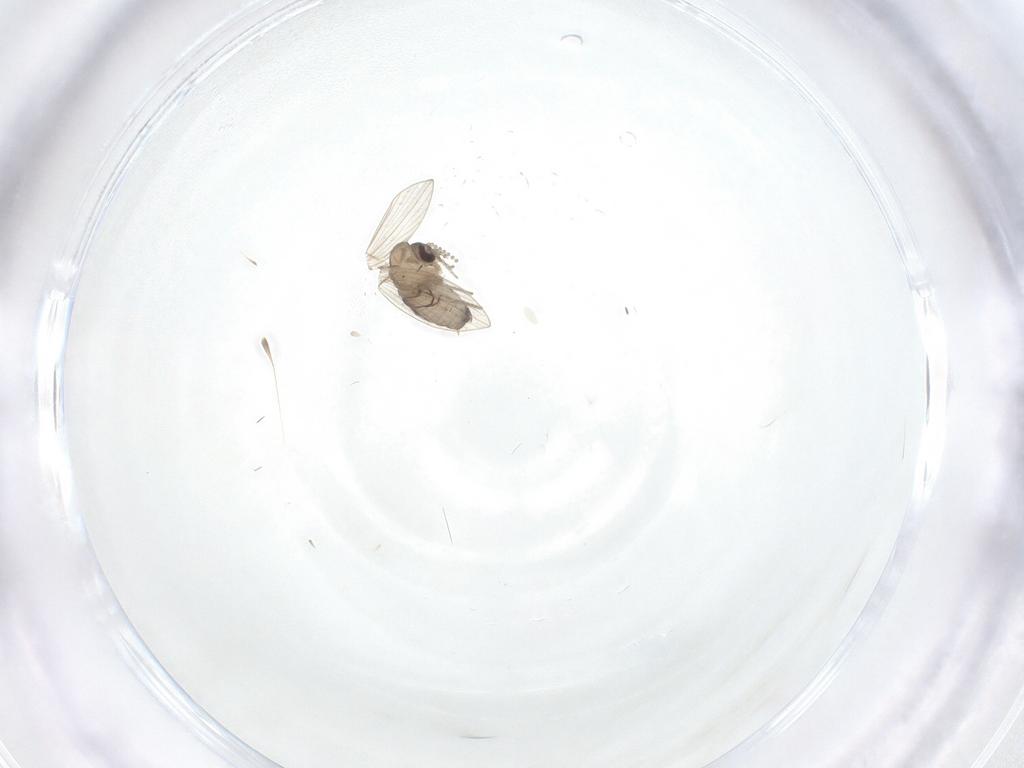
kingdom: Animalia
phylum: Arthropoda
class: Insecta
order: Diptera
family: Psychodidae
